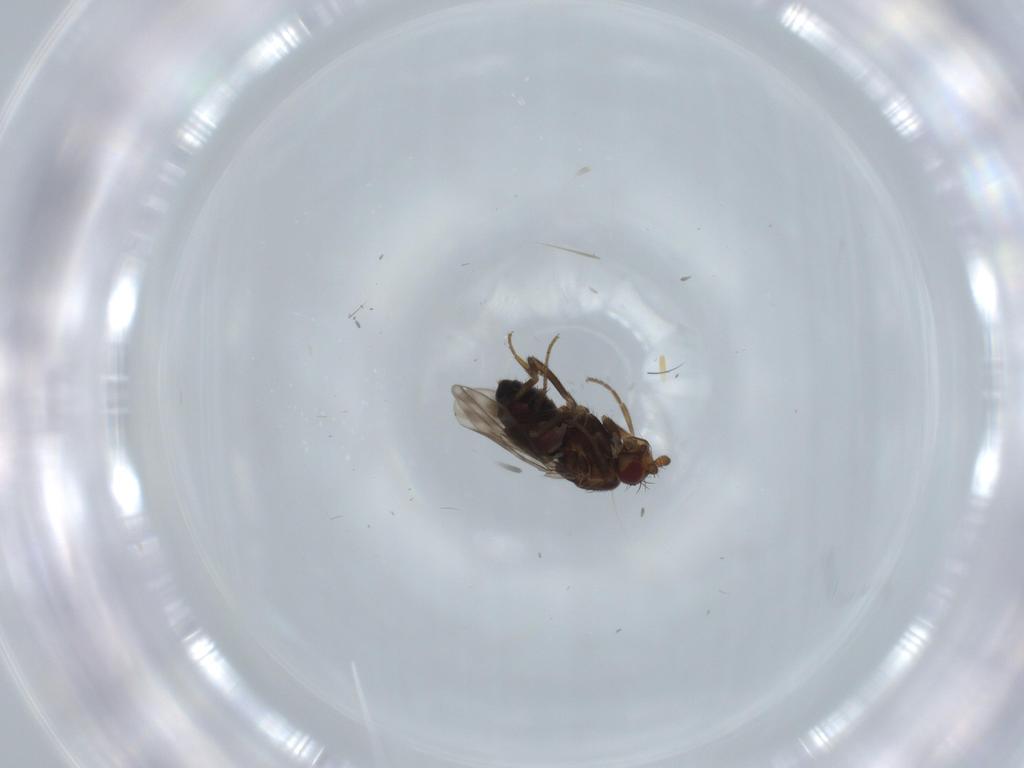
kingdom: Animalia
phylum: Arthropoda
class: Insecta
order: Diptera
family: Sphaeroceridae
